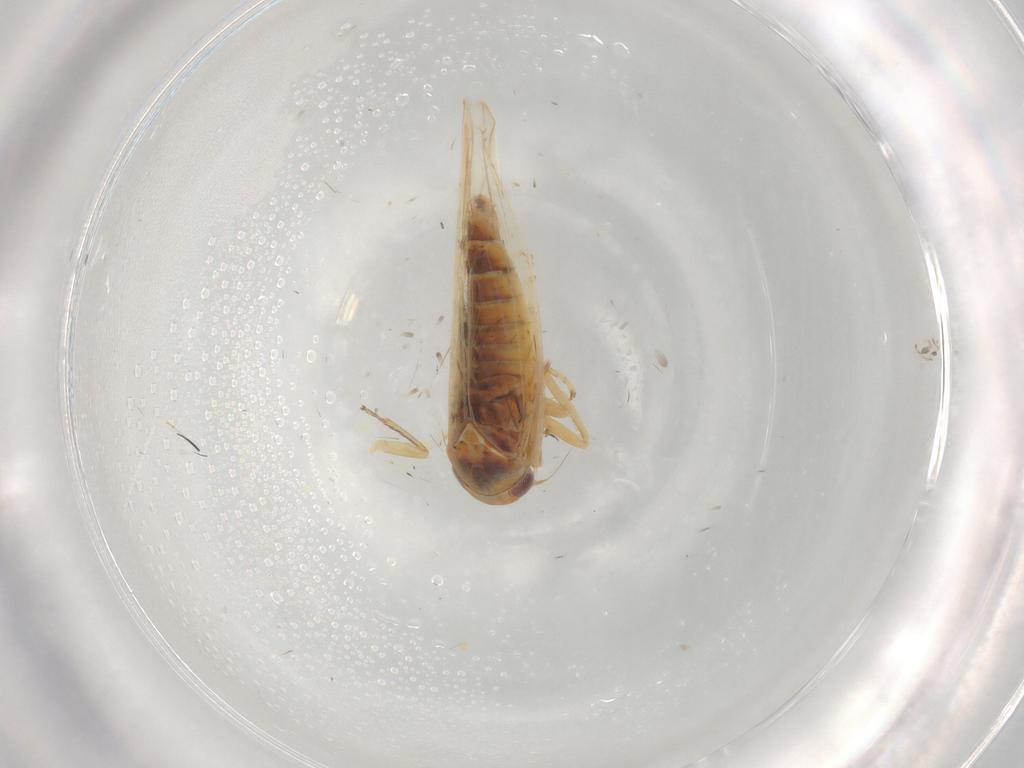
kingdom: Animalia
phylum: Arthropoda
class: Insecta
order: Hemiptera
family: Cicadellidae
